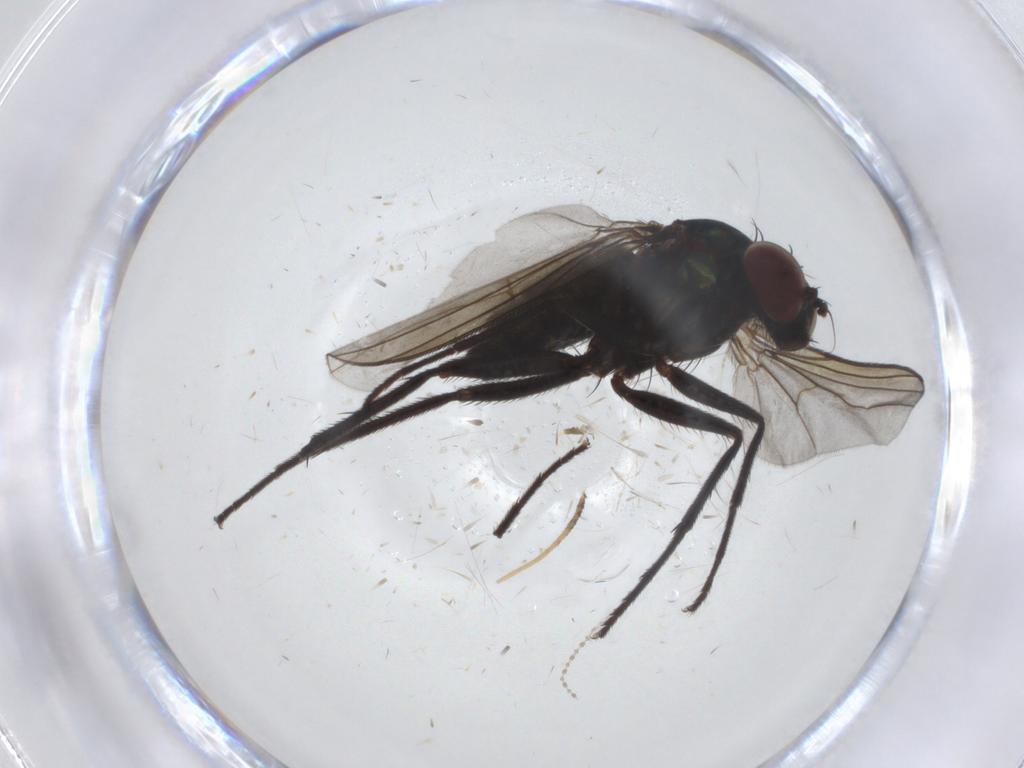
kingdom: Animalia
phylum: Arthropoda
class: Insecta
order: Diptera
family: Dolichopodidae
